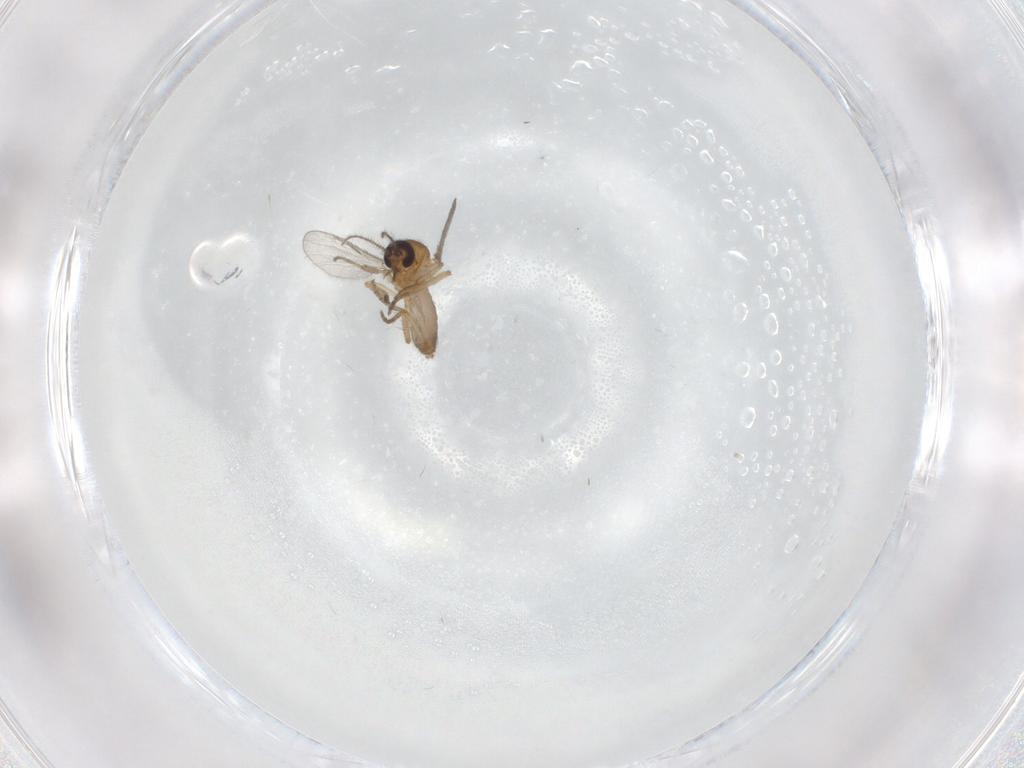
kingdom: Animalia
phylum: Arthropoda
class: Insecta
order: Diptera
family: Ceratopogonidae
